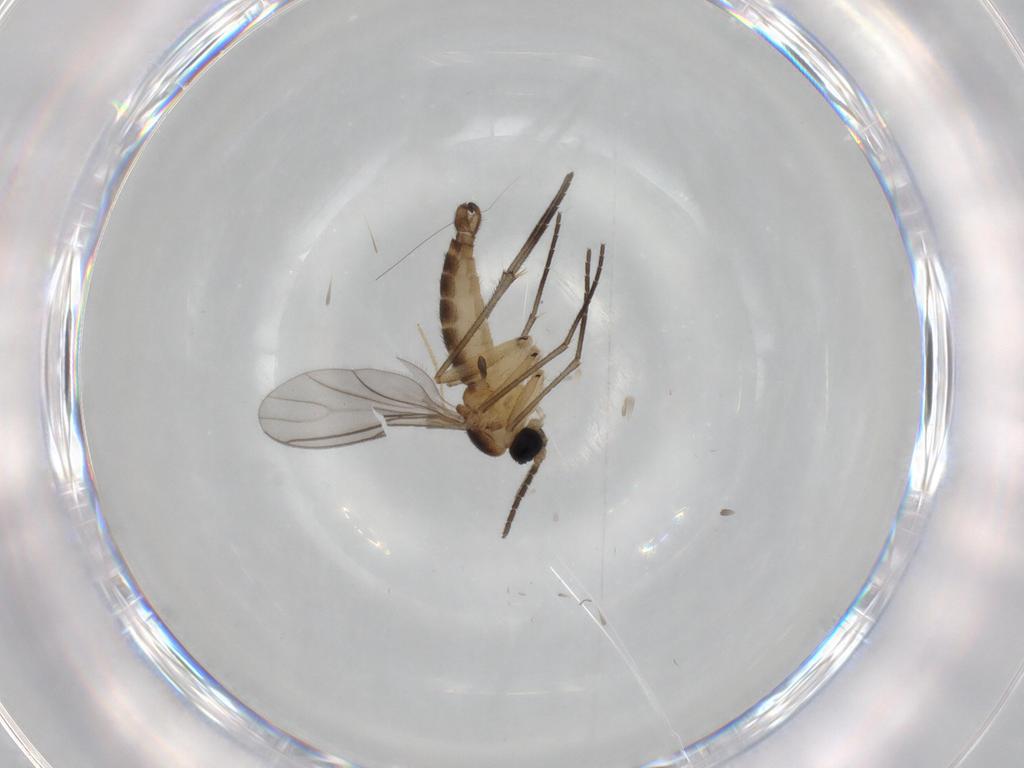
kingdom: Animalia
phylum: Arthropoda
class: Insecta
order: Diptera
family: Sciaridae
